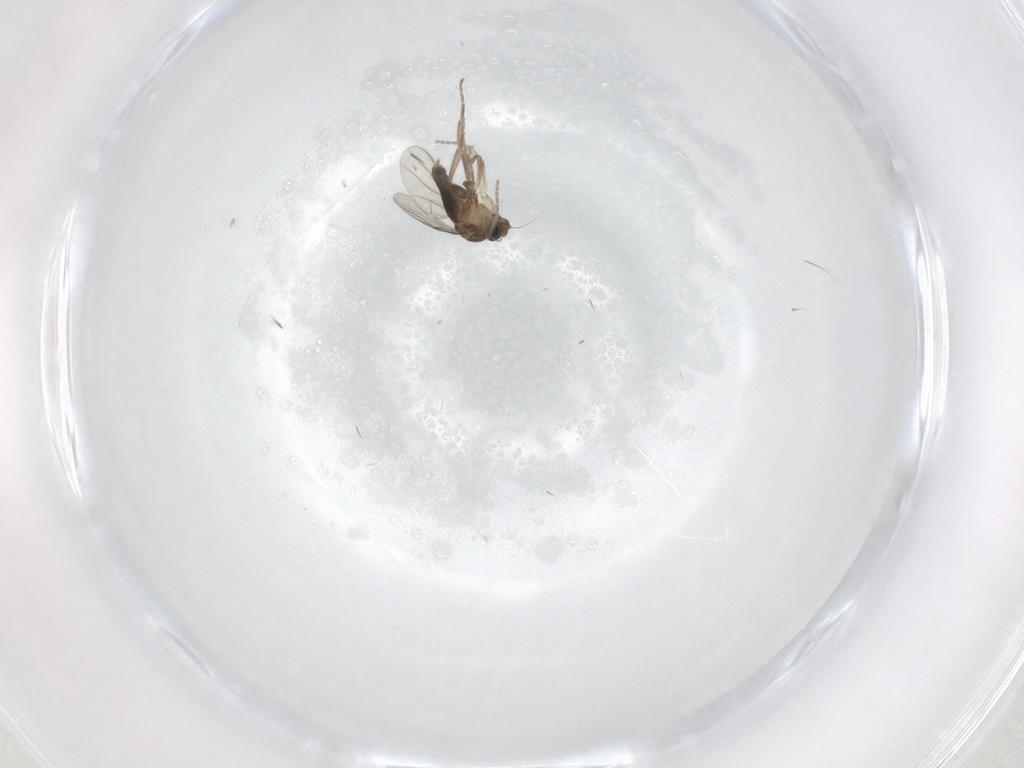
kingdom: Animalia
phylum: Arthropoda
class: Insecta
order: Diptera
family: Phoridae
